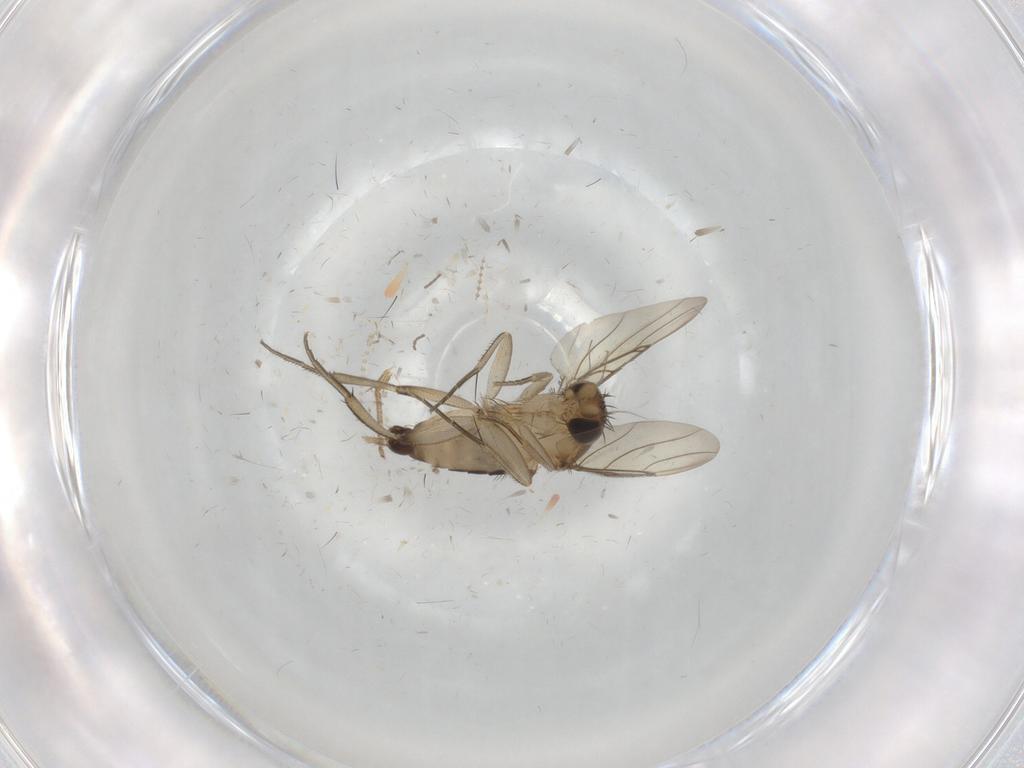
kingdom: Animalia
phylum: Arthropoda
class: Insecta
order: Diptera
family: Phoridae
